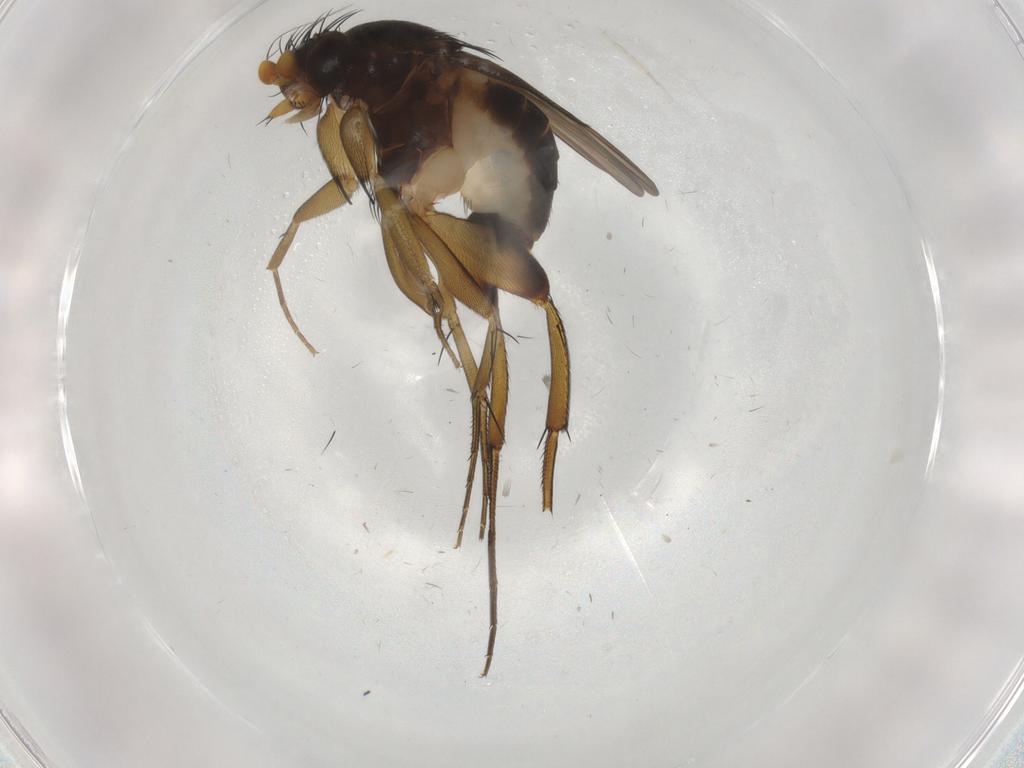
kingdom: Animalia
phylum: Arthropoda
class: Insecta
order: Diptera
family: Phoridae
